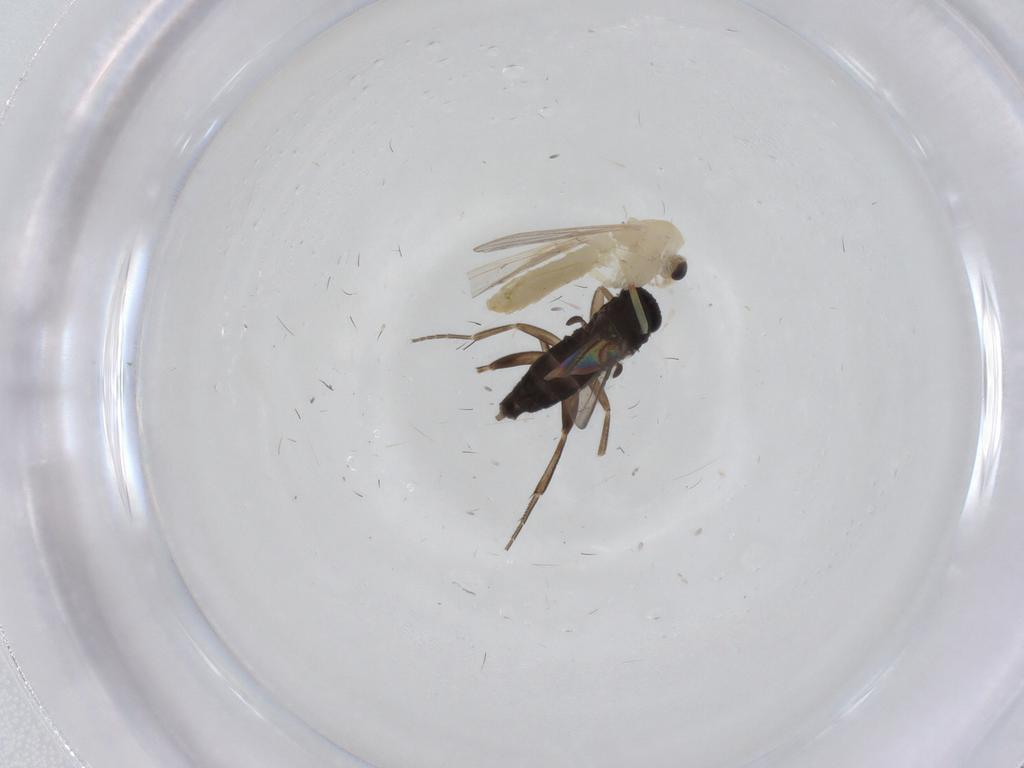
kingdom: Animalia
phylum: Arthropoda
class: Insecta
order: Diptera
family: Chironomidae
